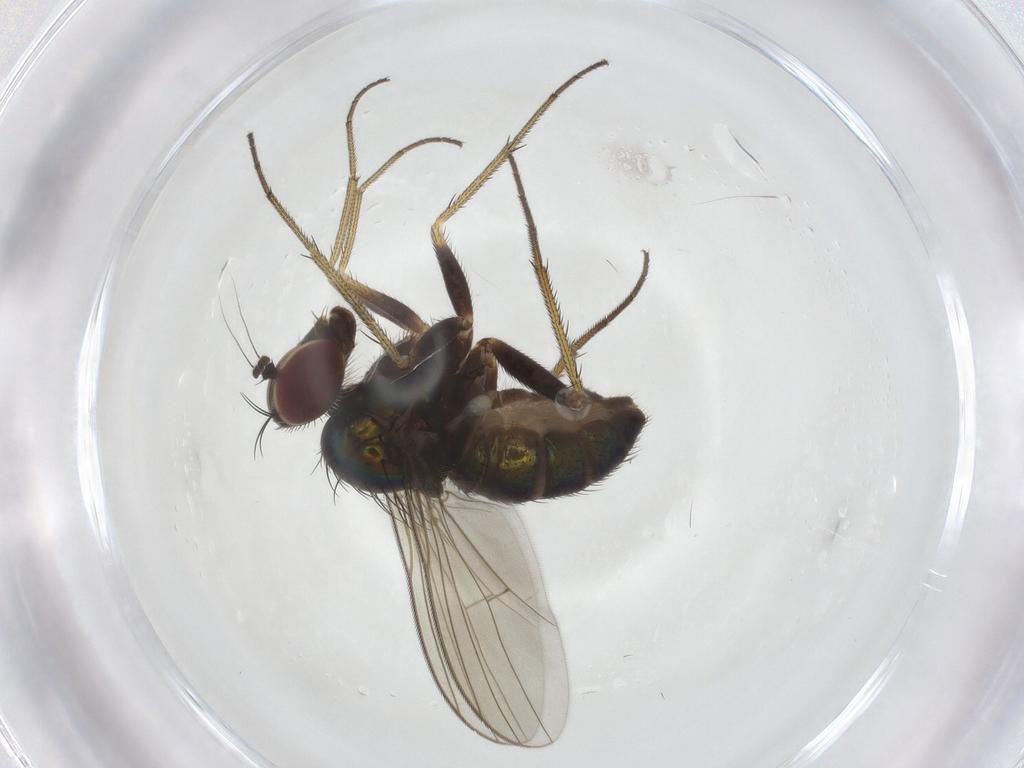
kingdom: Animalia
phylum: Arthropoda
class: Insecta
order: Diptera
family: Dolichopodidae
